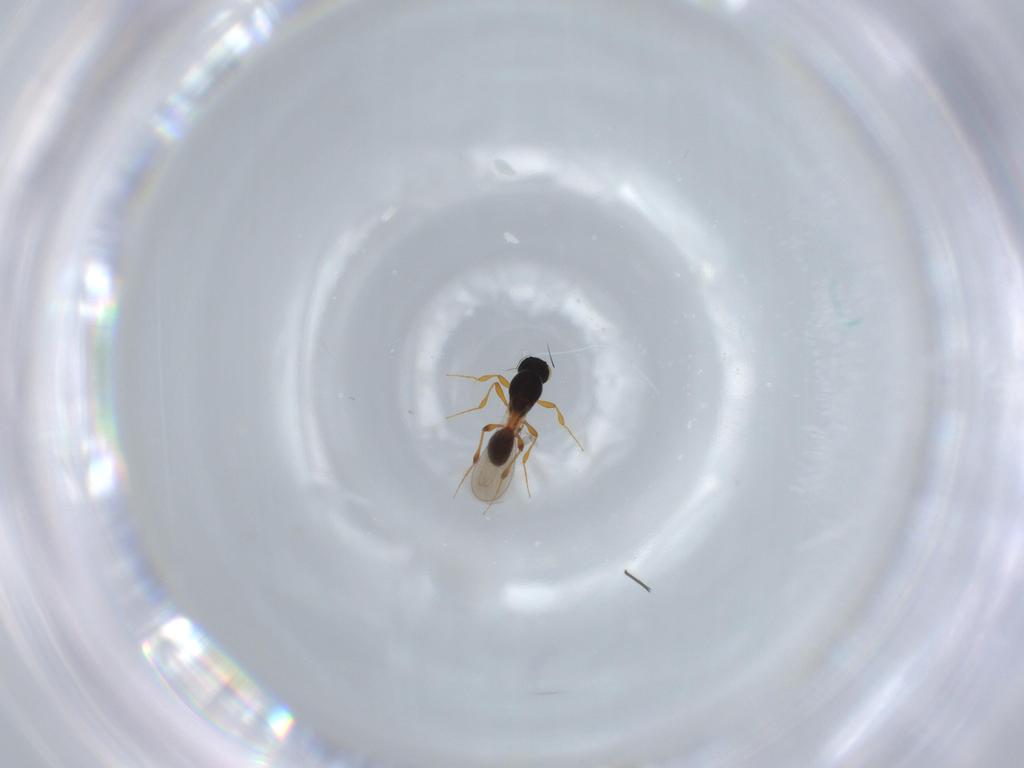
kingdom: Animalia
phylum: Arthropoda
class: Insecta
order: Hymenoptera
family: Platygastridae
